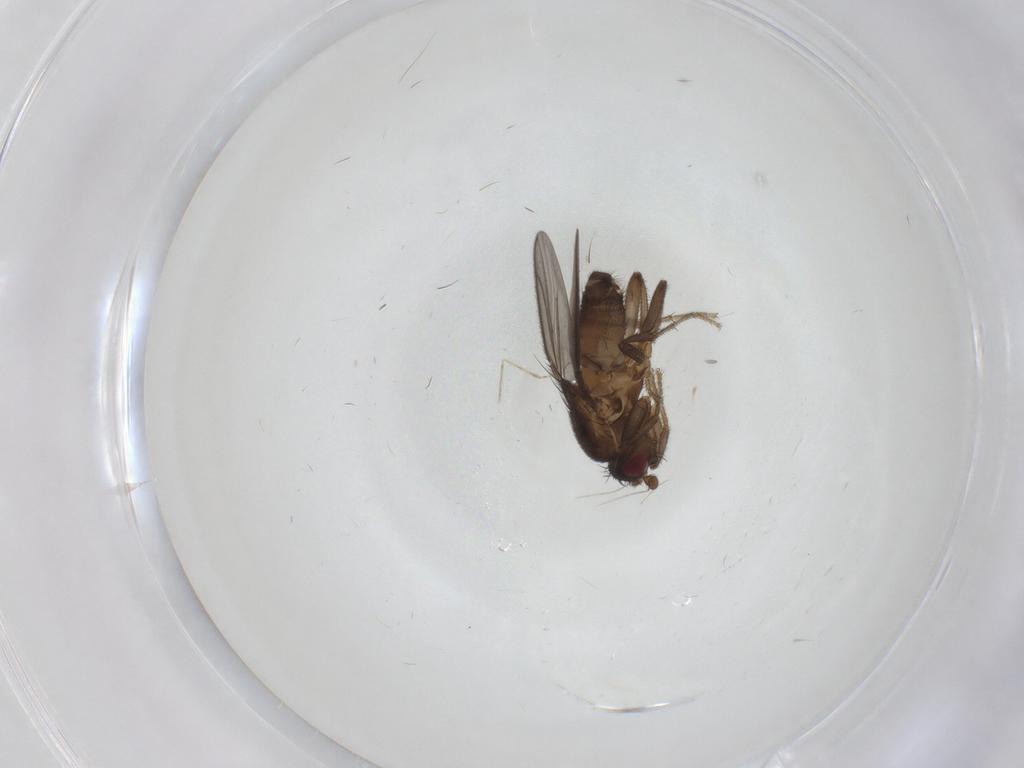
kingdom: Animalia
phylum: Arthropoda
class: Insecta
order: Diptera
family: Sphaeroceridae
